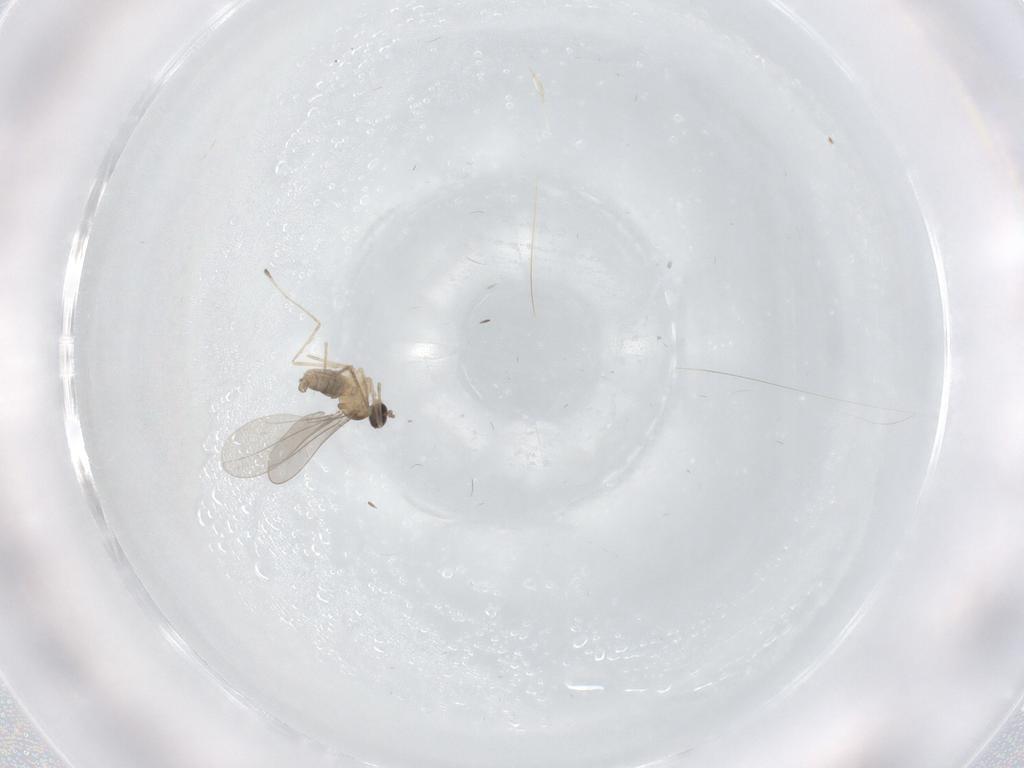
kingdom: Animalia
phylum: Arthropoda
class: Insecta
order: Diptera
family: Cecidomyiidae
